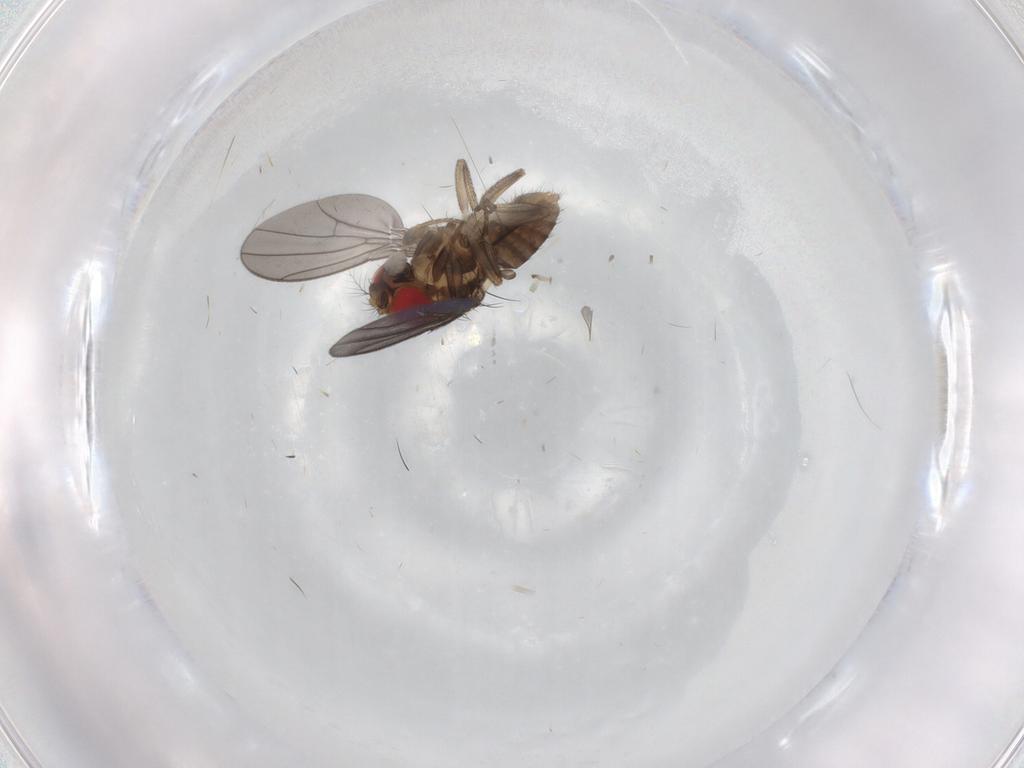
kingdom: Animalia
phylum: Arthropoda
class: Insecta
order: Diptera
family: Drosophilidae
